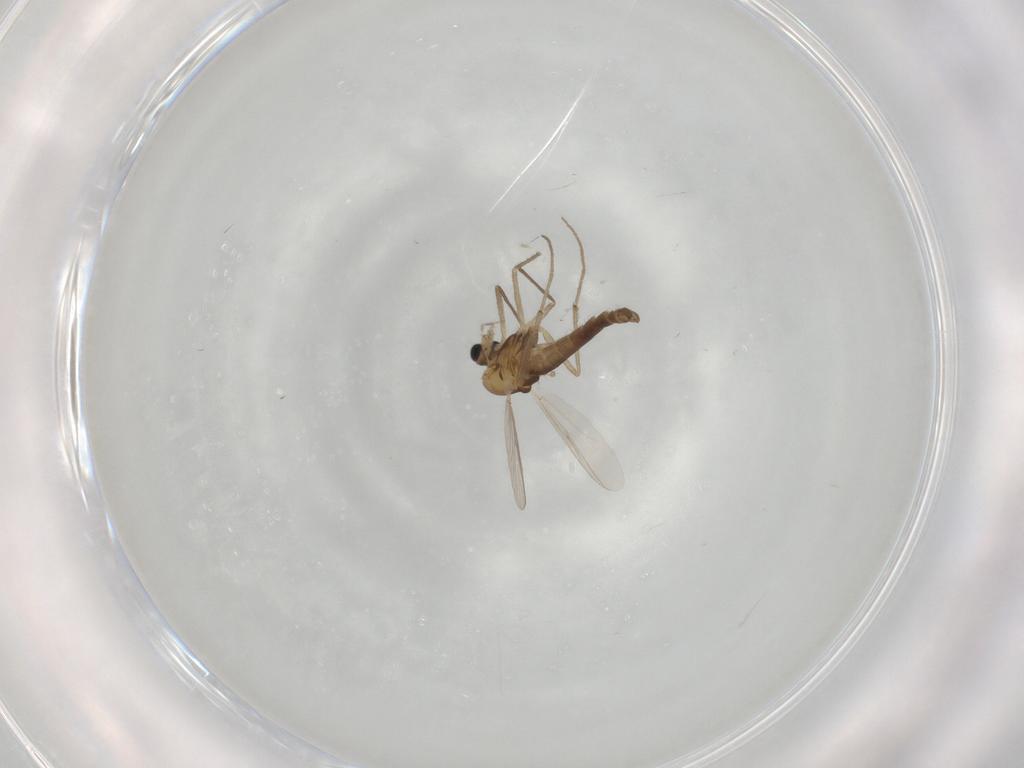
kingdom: Animalia
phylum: Arthropoda
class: Insecta
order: Diptera
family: Chironomidae
